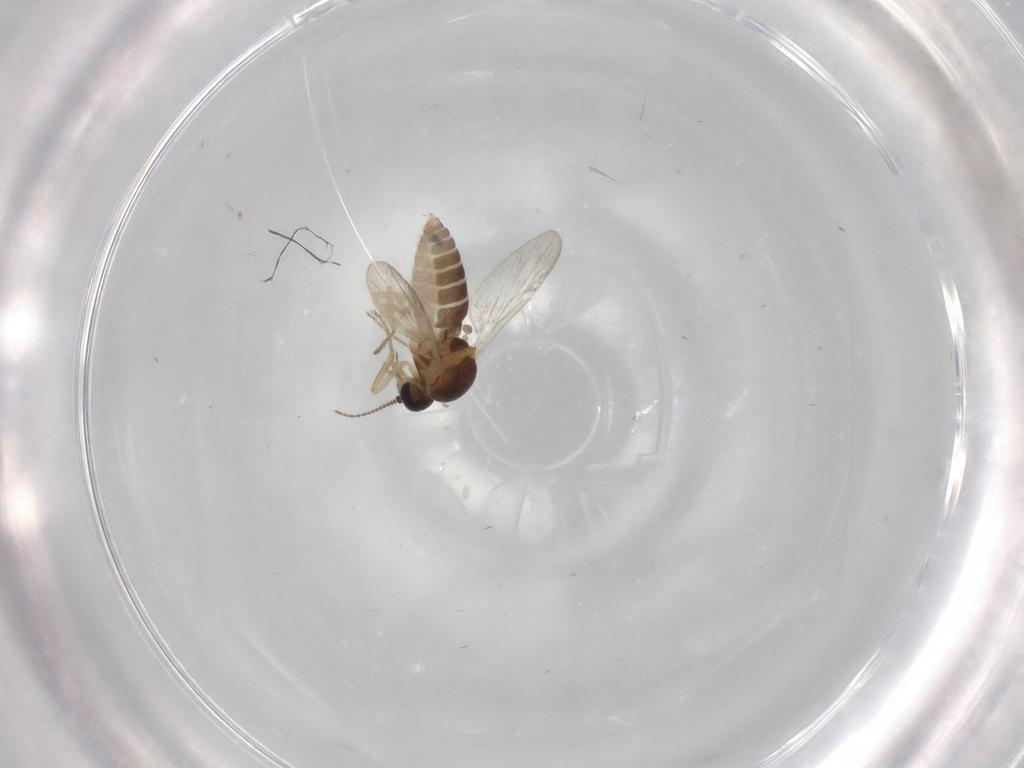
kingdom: Animalia
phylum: Arthropoda
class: Insecta
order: Diptera
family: Ceratopogonidae
